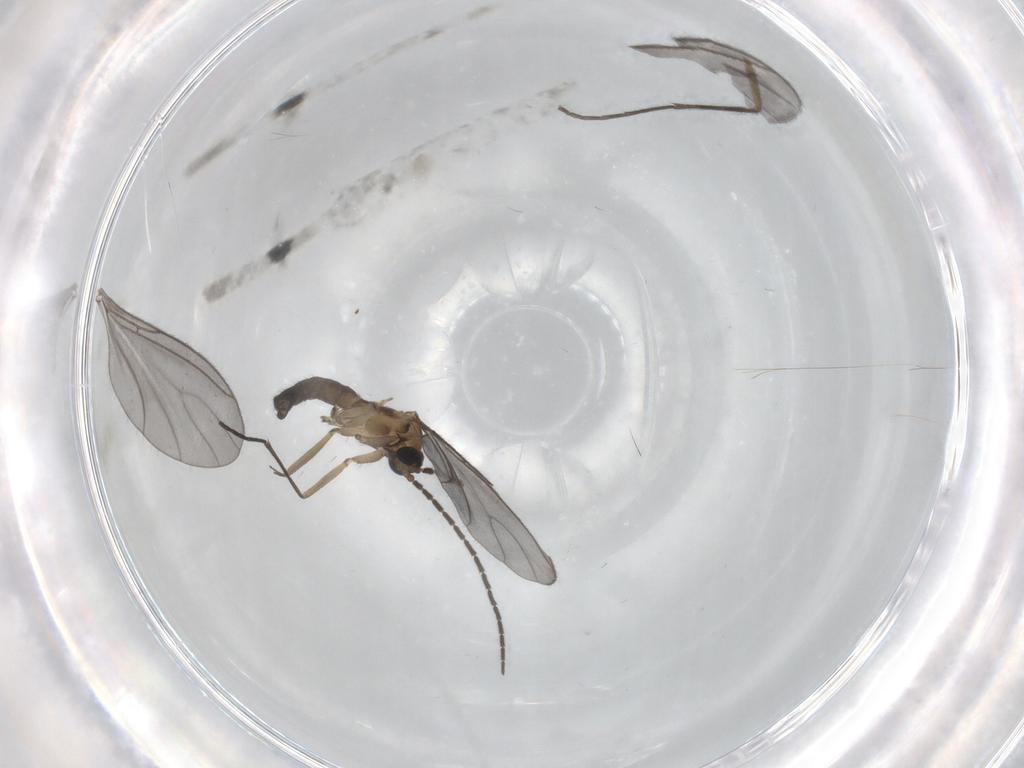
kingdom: Animalia
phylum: Arthropoda
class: Insecta
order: Diptera
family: Sciaridae
